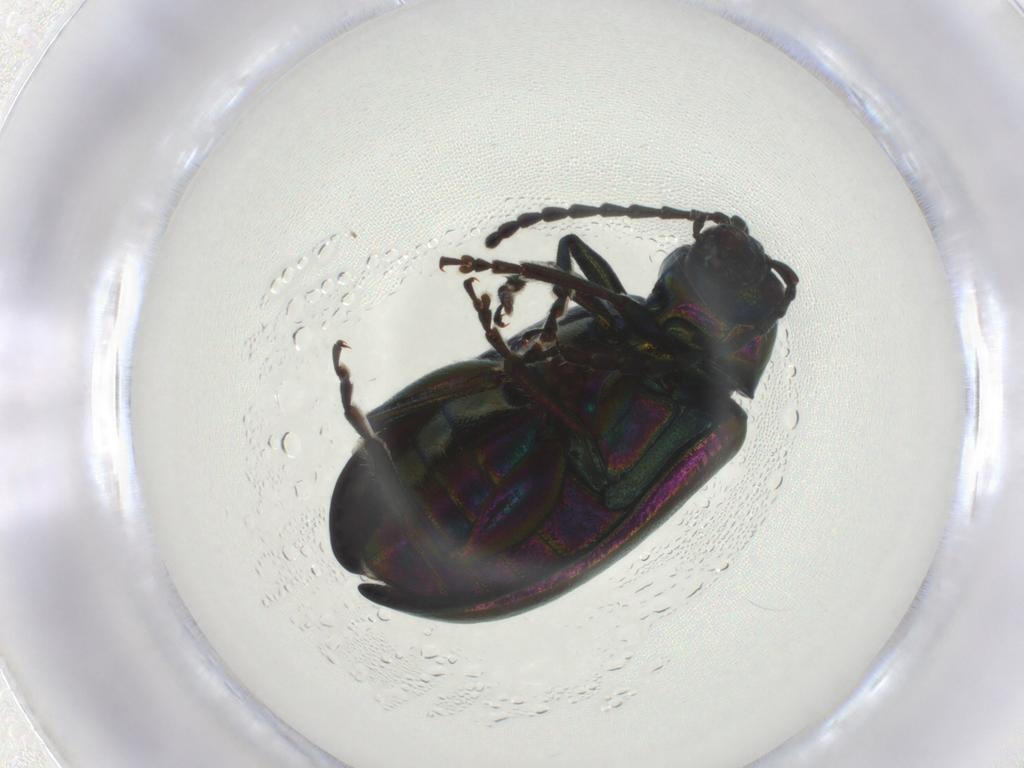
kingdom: Animalia
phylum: Arthropoda
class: Insecta
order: Coleoptera
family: Chrysomelidae
